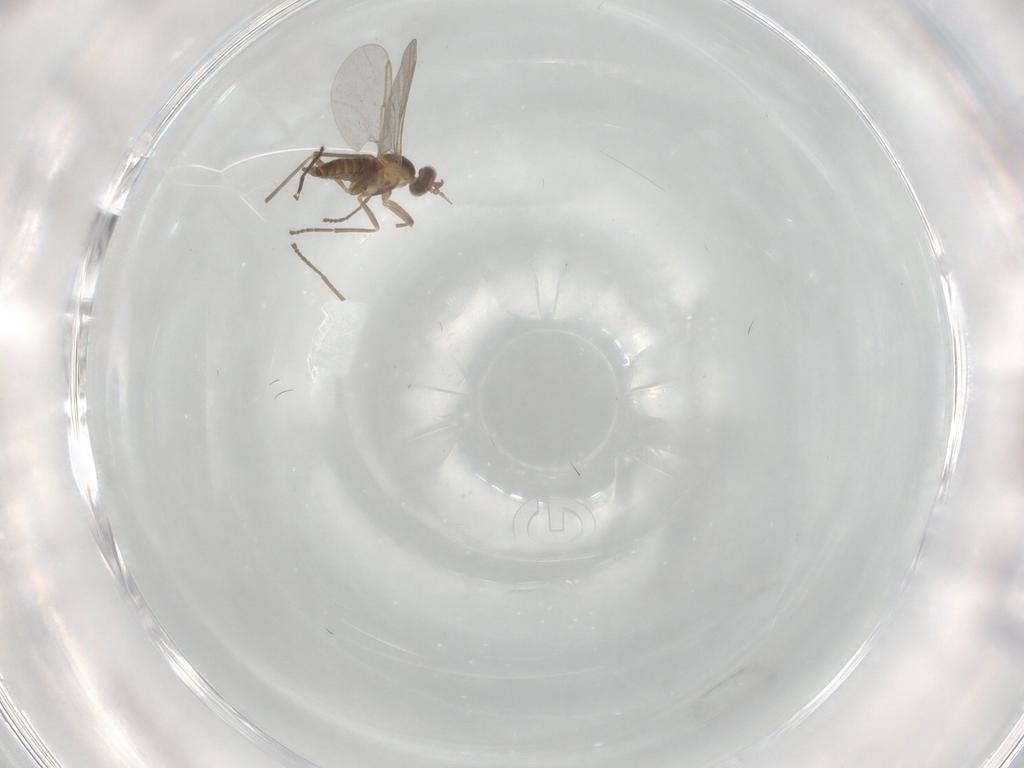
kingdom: Animalia
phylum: Arthropoda
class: Insecta
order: Diptera
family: Cecidomyiidae
